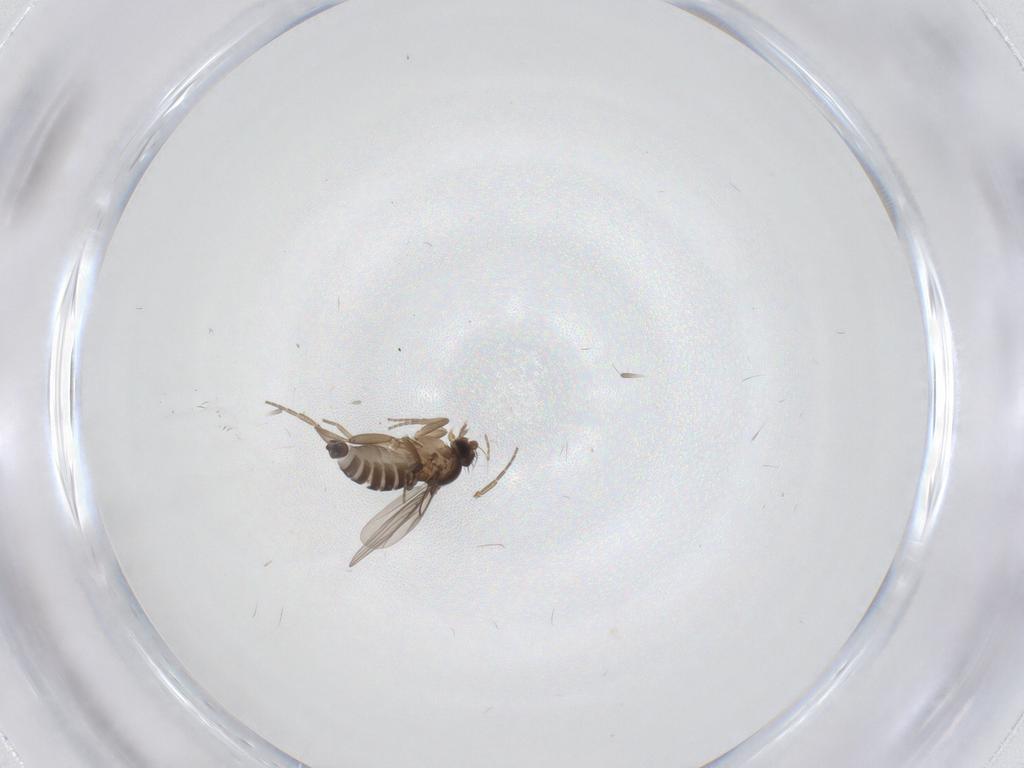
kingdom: Animalia
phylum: Arthropoda
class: Insecta
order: Diptera
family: Phoridae
